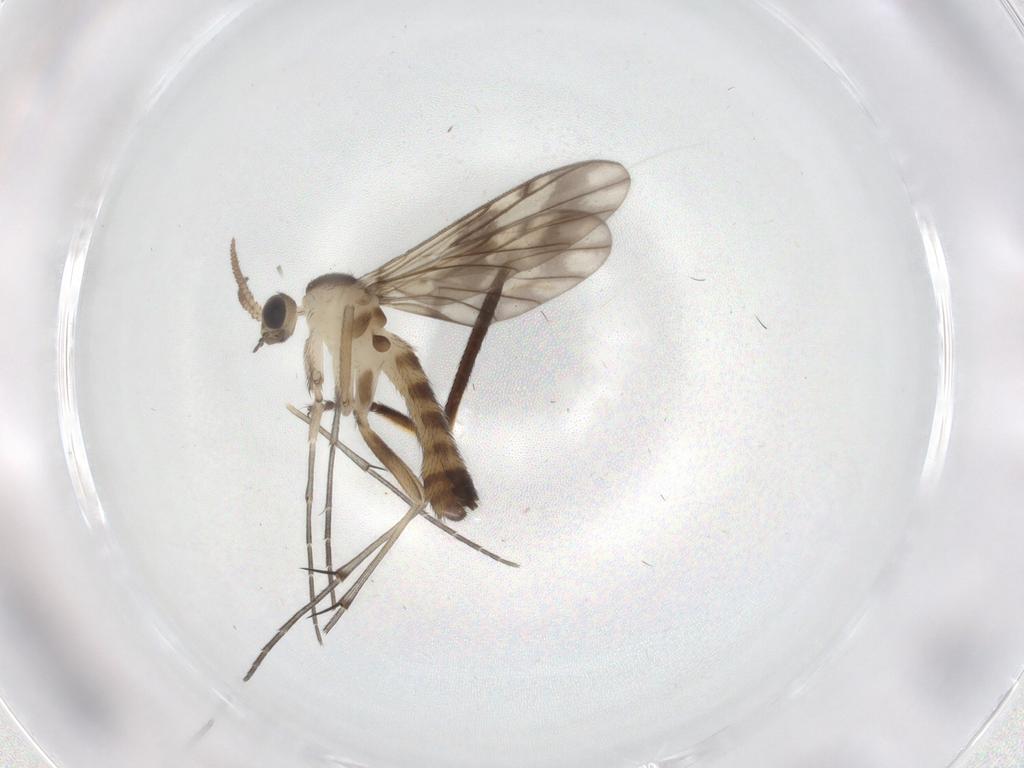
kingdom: Animalia
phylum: Arthropoda
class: Insecta
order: Diptera
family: Keroplatidae
